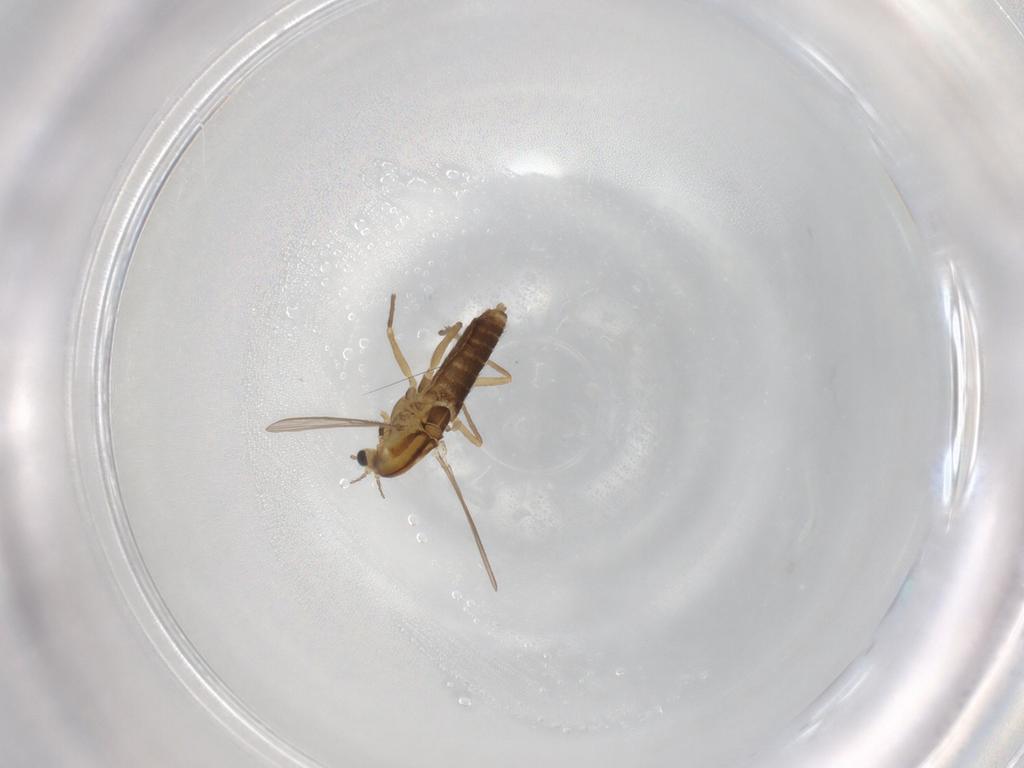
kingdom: Animalia
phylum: Arthropoda
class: Insecta
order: Diptera
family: Chironomidae
